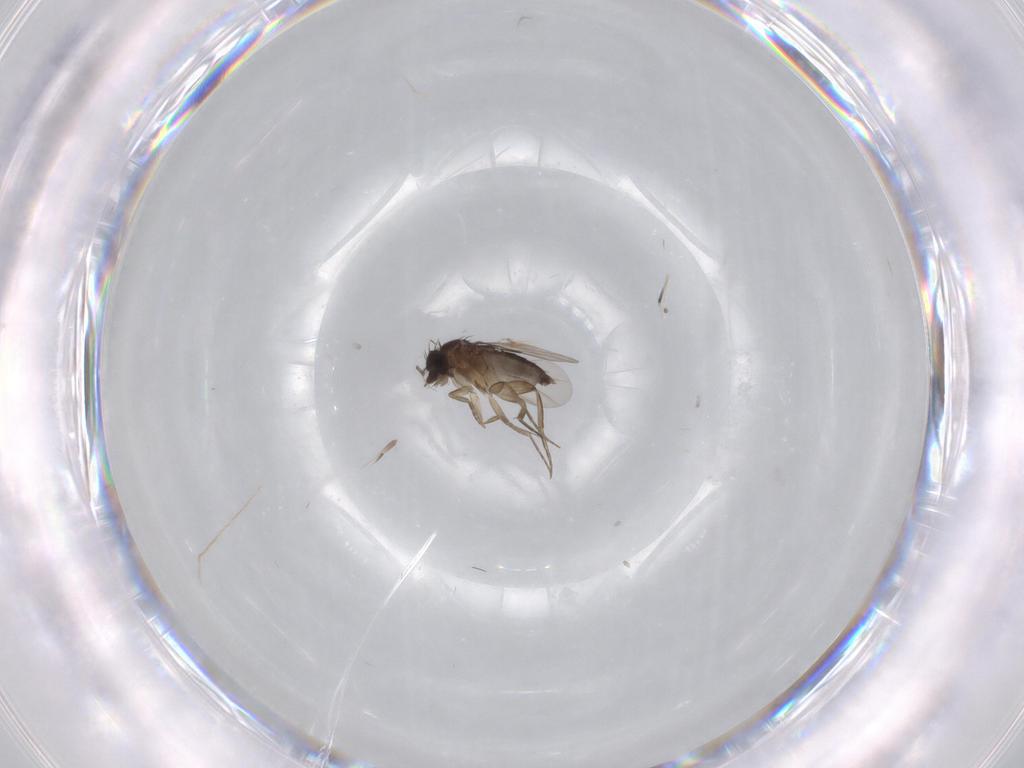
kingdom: Animalia
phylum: Arthropoda
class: Insecta
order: Diptera
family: Phoridae
